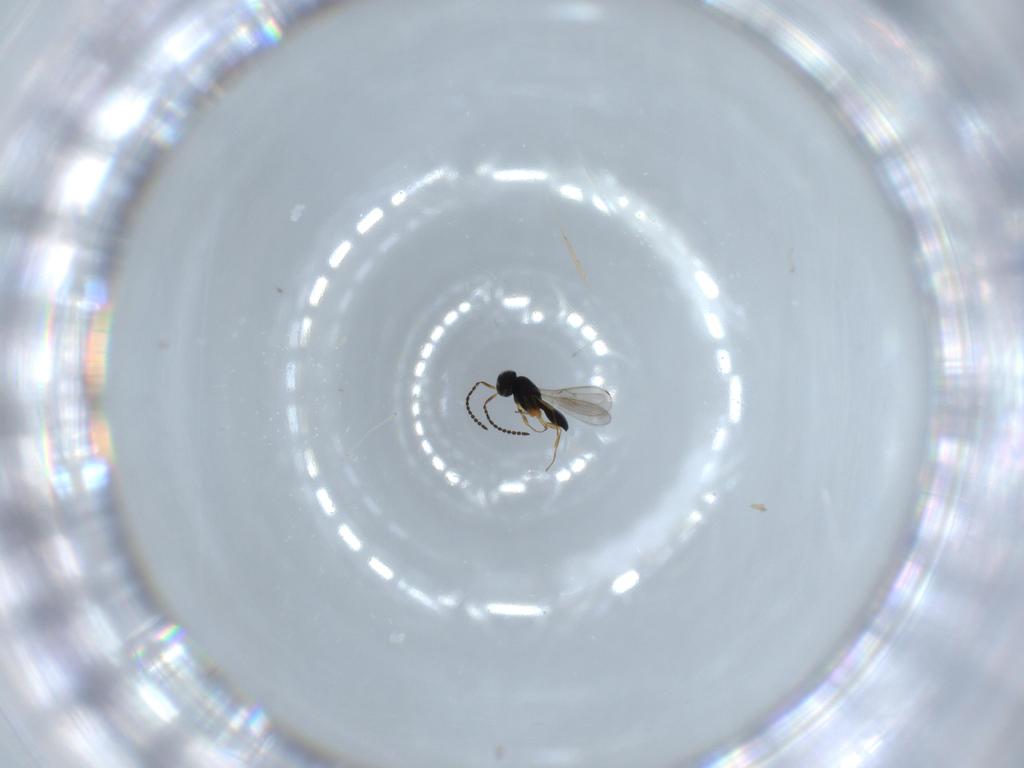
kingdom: Animalia
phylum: Arthropoda
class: Insecta
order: Hymenoptera
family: Scelionidae
